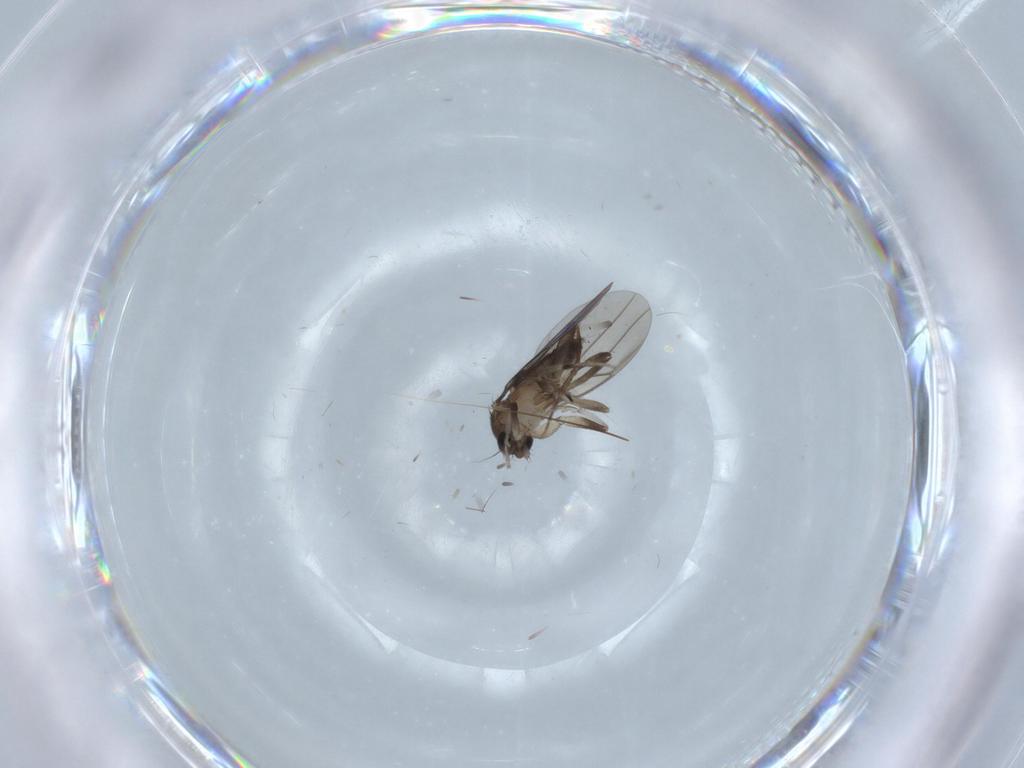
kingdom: Animalia
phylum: Arthropoda
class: Insecta
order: Diptera
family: Chironomidae
